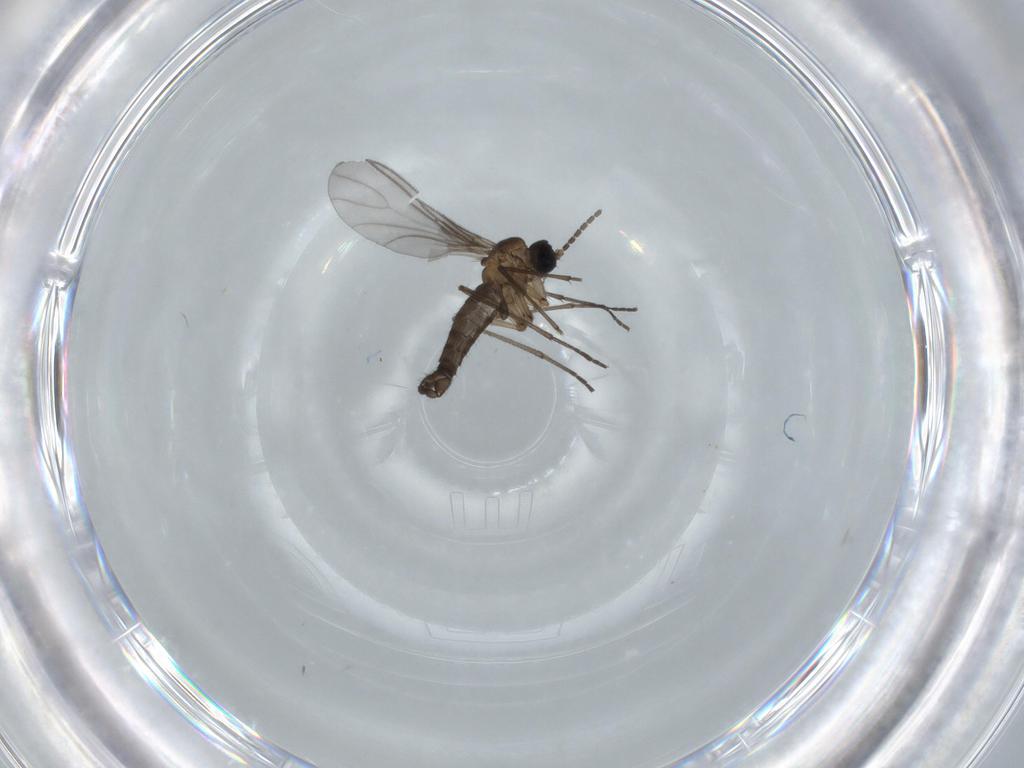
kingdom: Animalia
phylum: Arthropoda
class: Insecta
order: Diptera
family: Sciaridae
